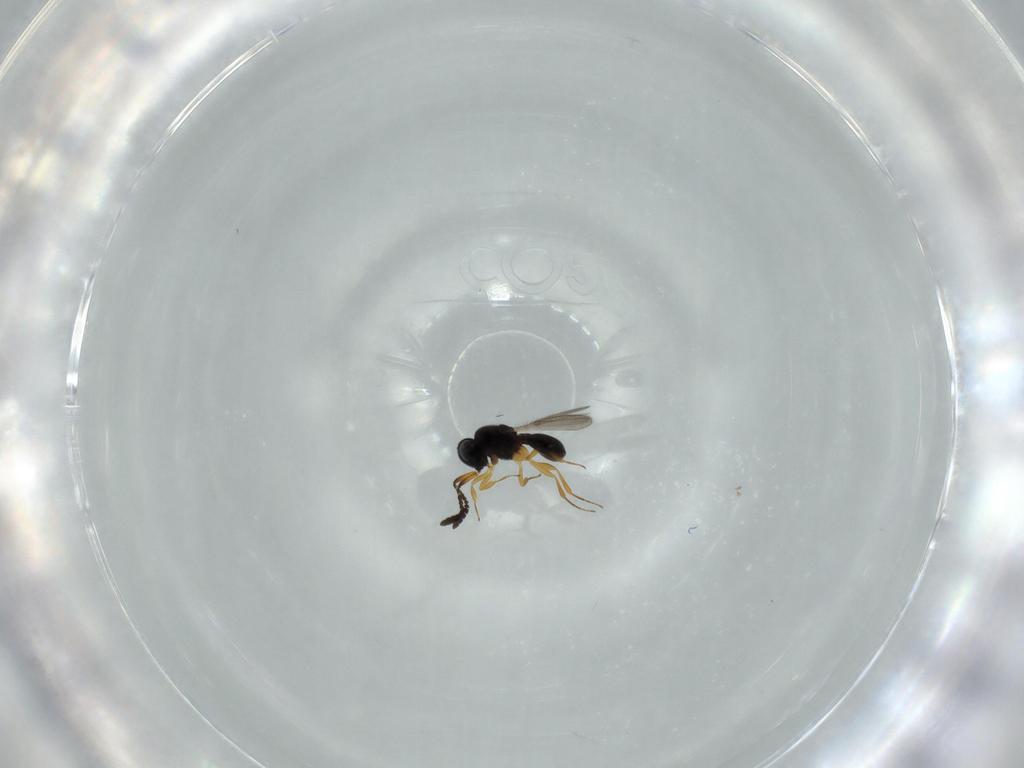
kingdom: Animalia
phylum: Arthropoda
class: Insecta
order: Hymenoptera
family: Scelionidae
